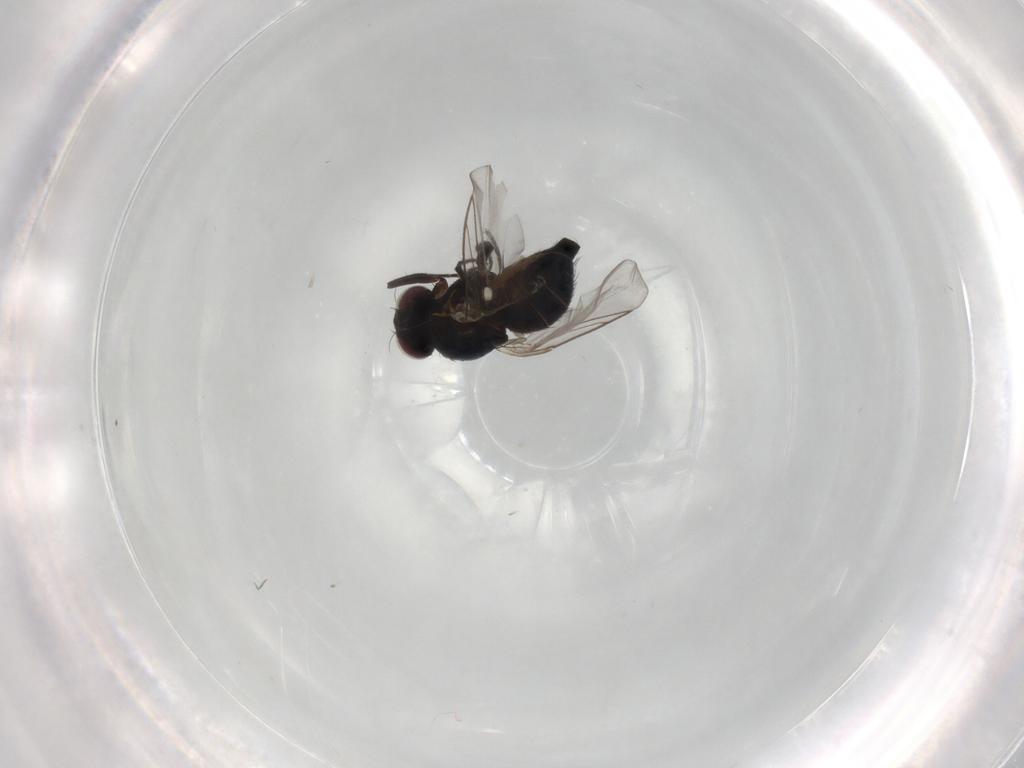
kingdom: Animalia
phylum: Arthropoda
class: Insecta
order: Diptera
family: Agromyzidae
